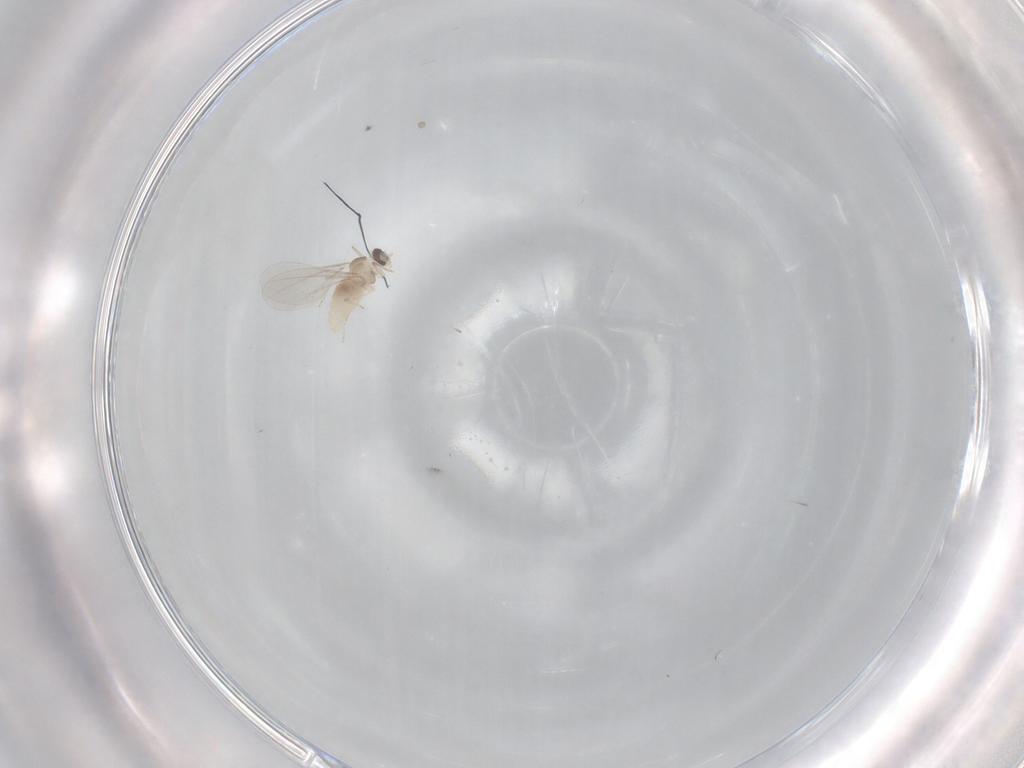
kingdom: Animalia
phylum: Arthropoda
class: Insecta
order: Diptera
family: Cecidomyiidae
